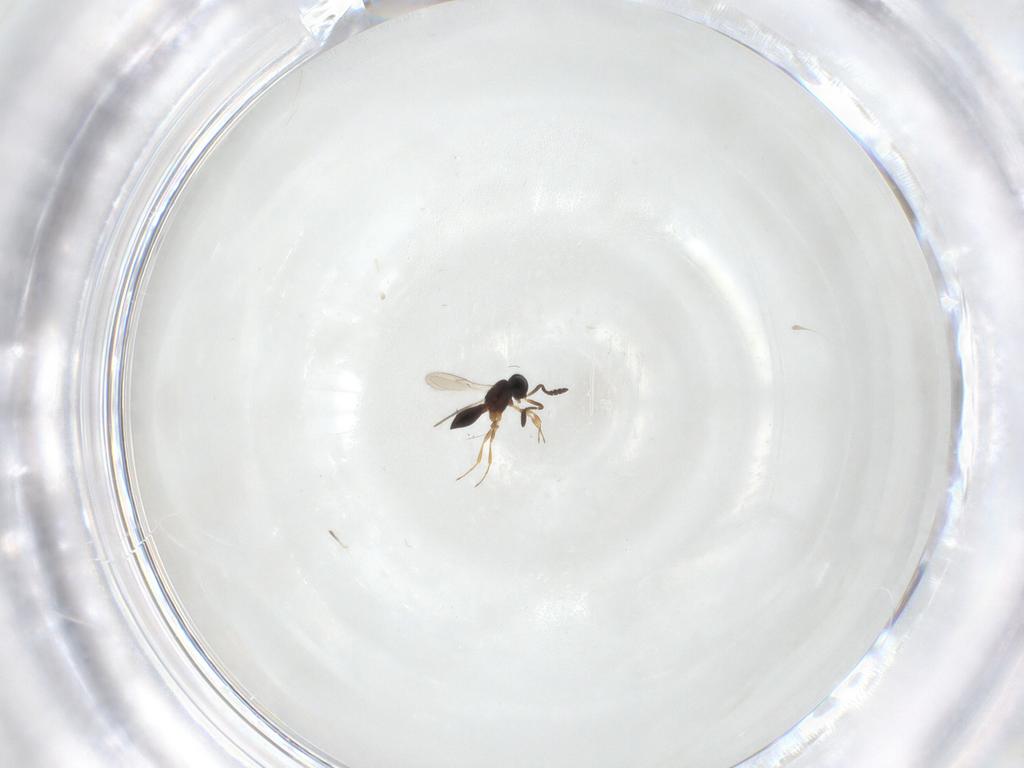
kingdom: Animalia
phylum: Arthropoda
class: Insecta
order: Hymenoptera
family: Scelionidae
